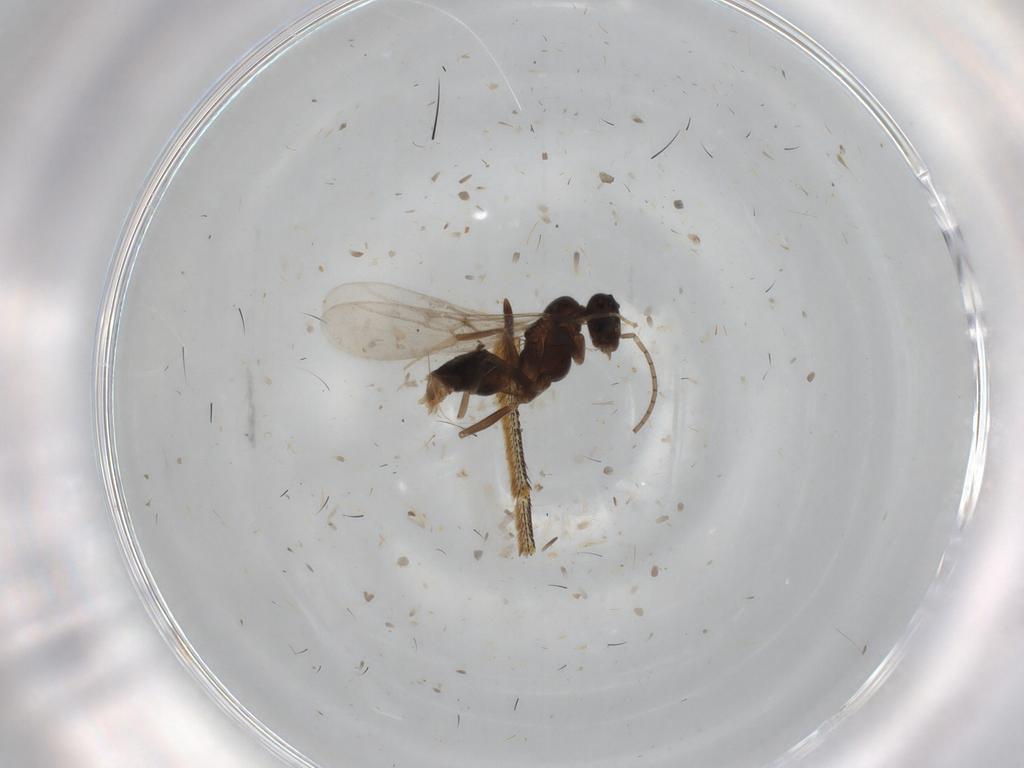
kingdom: Animalia
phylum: Arthropoda
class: Insecta
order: Hymenoptera
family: Formicidae
